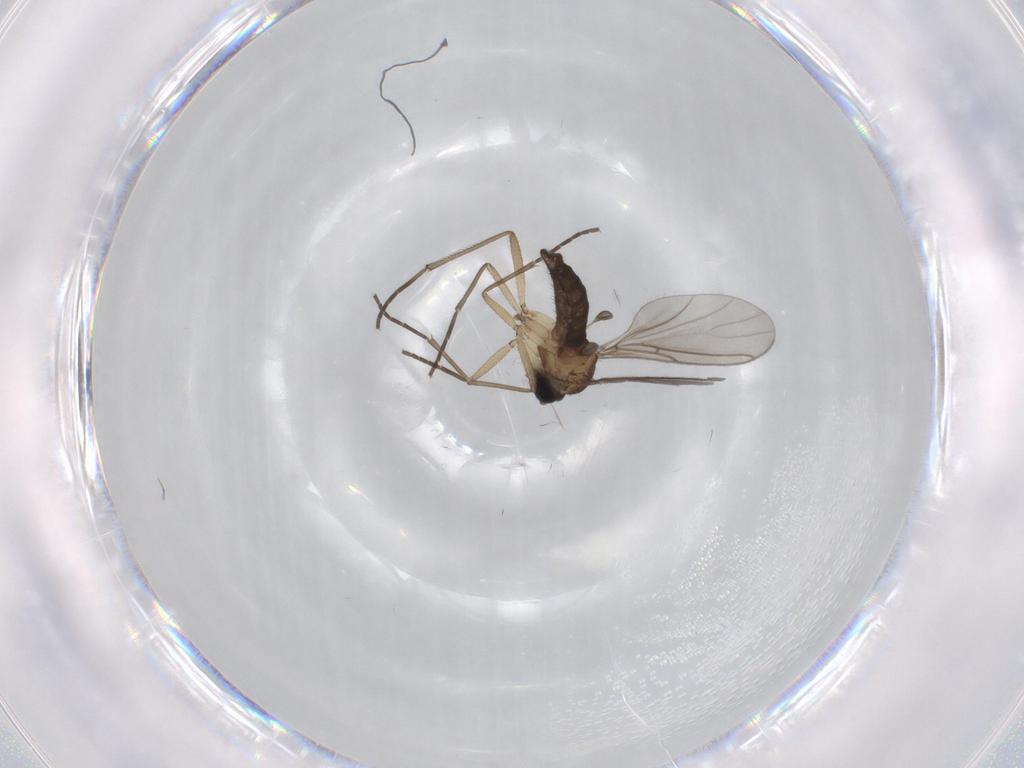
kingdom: Animalia
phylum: Arthropoda
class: Insecta
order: Diptera
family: Sciaridae
